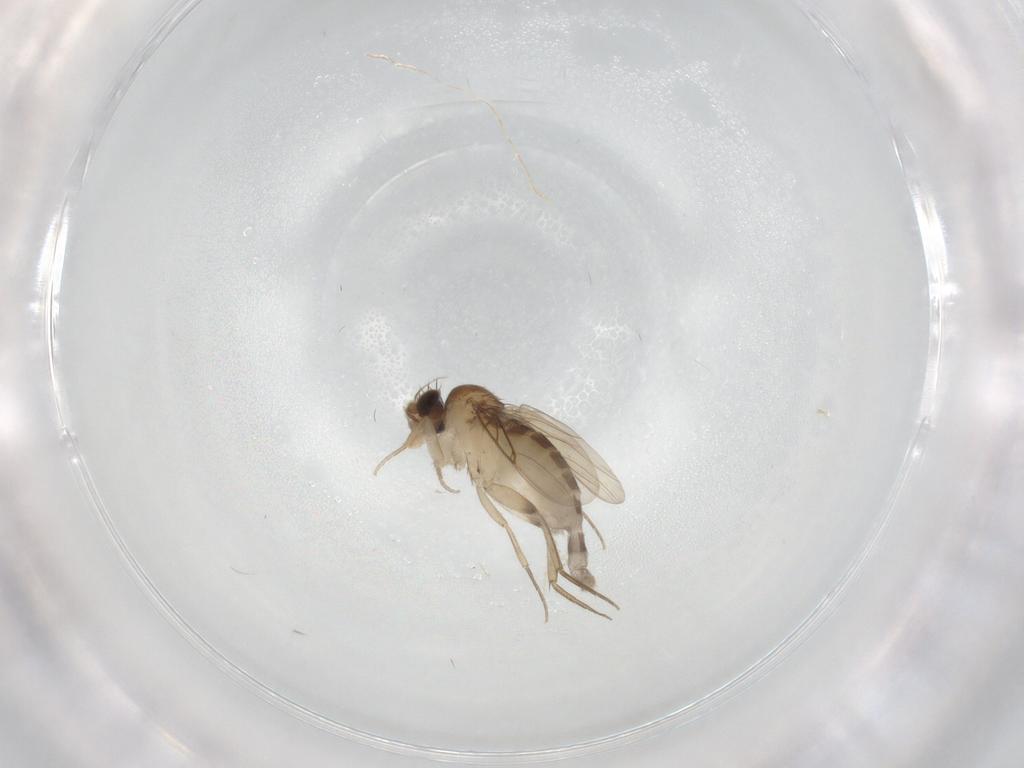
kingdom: Animalia
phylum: Arthropoda
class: Insecta
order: Diptera
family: Phoridae
